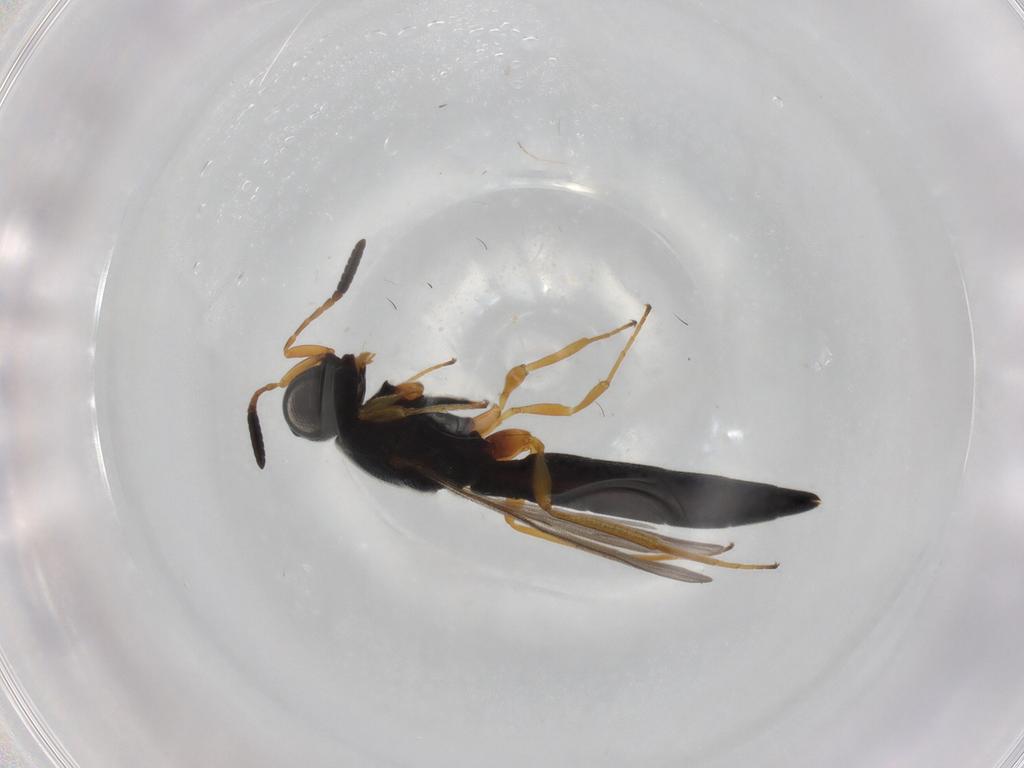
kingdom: Animalia
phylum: Arthropoda
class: Insecta
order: Hymenoptera
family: Scelionidae
